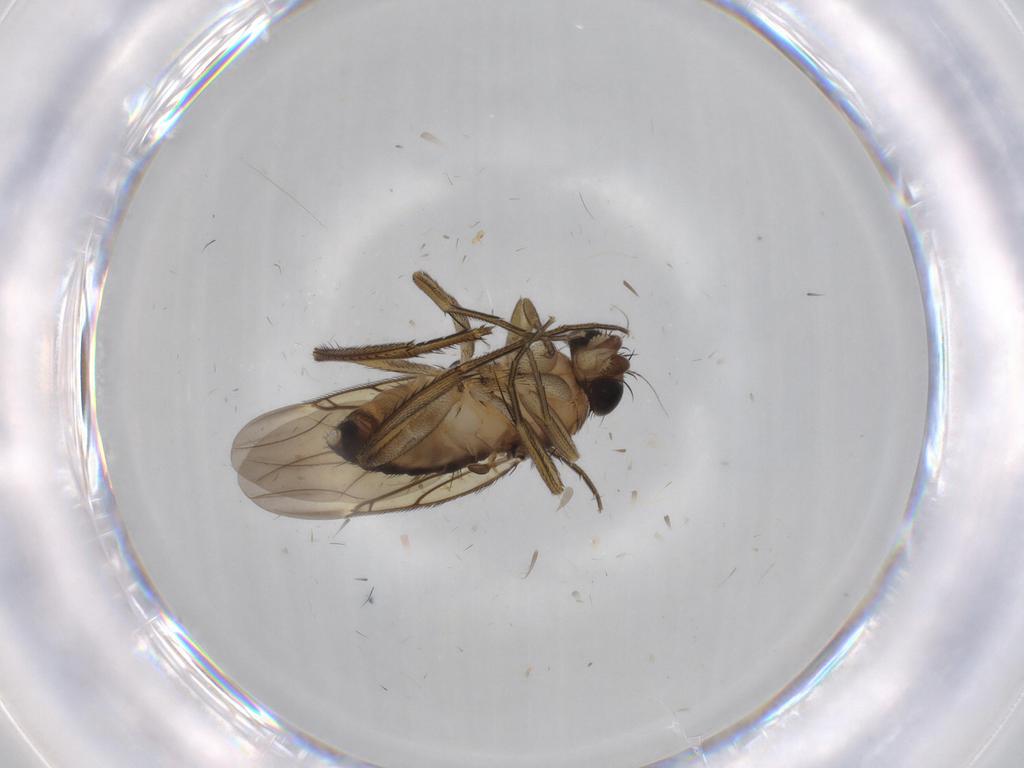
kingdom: Animalia
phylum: Arthropoda
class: Insecta
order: Diptera
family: Phoridae
